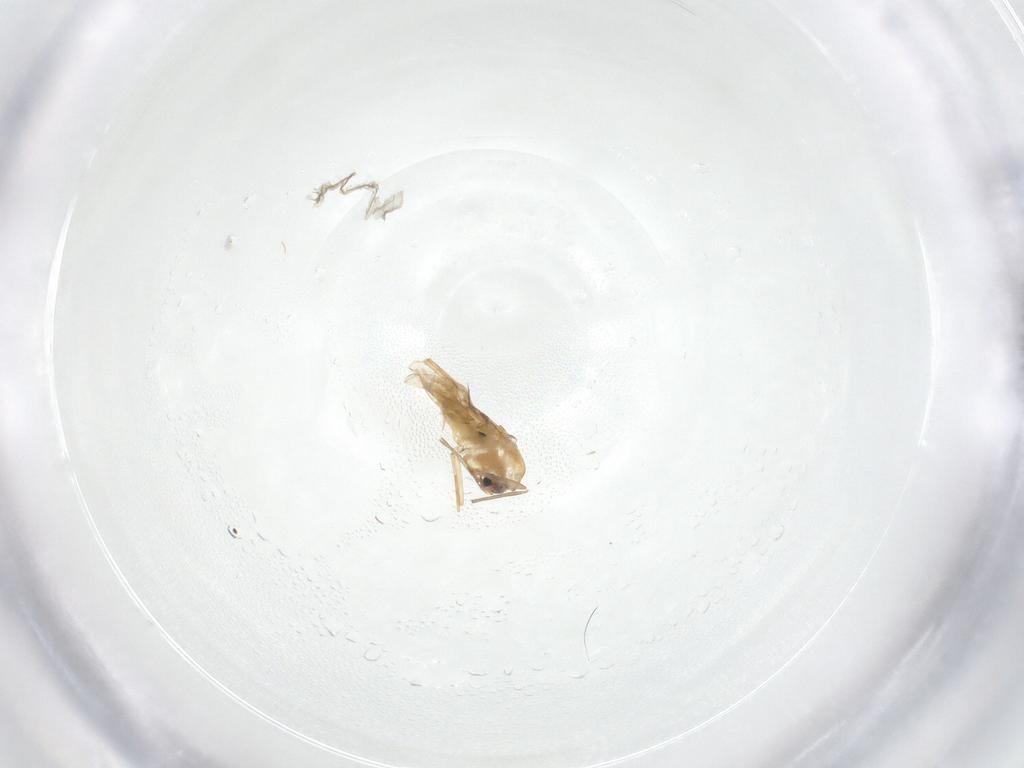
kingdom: Animalia
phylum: Arthropoda
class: Insecta
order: Diptera
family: Chironomidae
